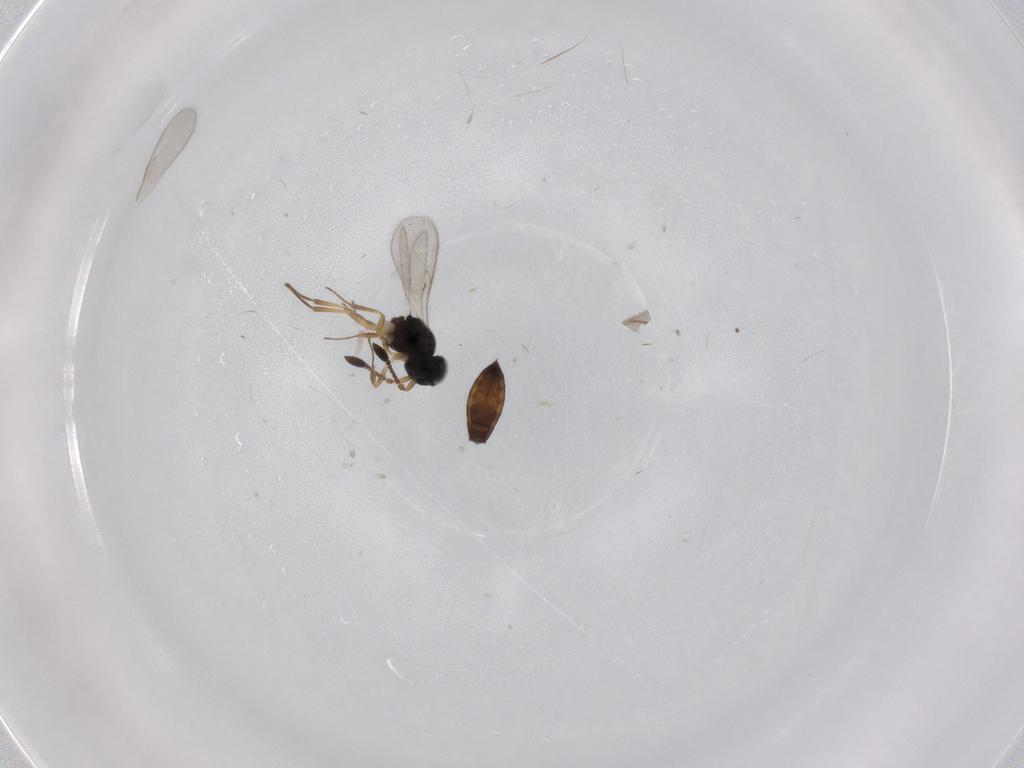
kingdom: Animalia
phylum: Arthropoda
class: Insecta
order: Hymenoptera
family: Scelionidae
